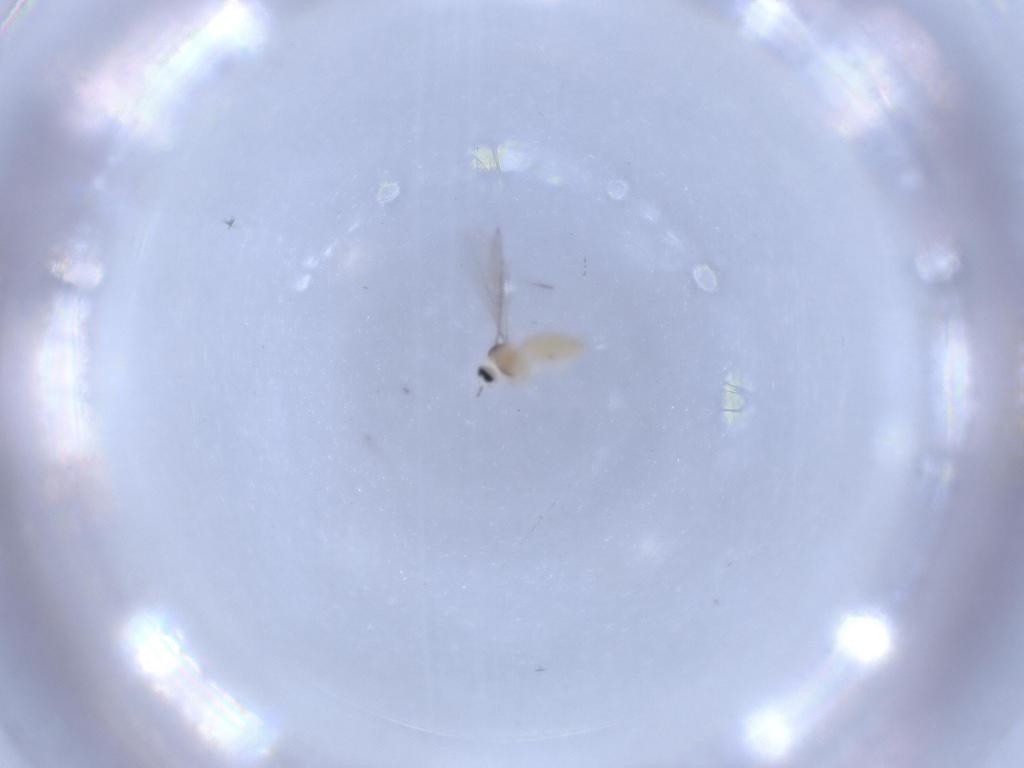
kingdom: Animalia
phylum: Arthropoda
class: Insecta
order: Diptera
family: Cecidomyiidae
